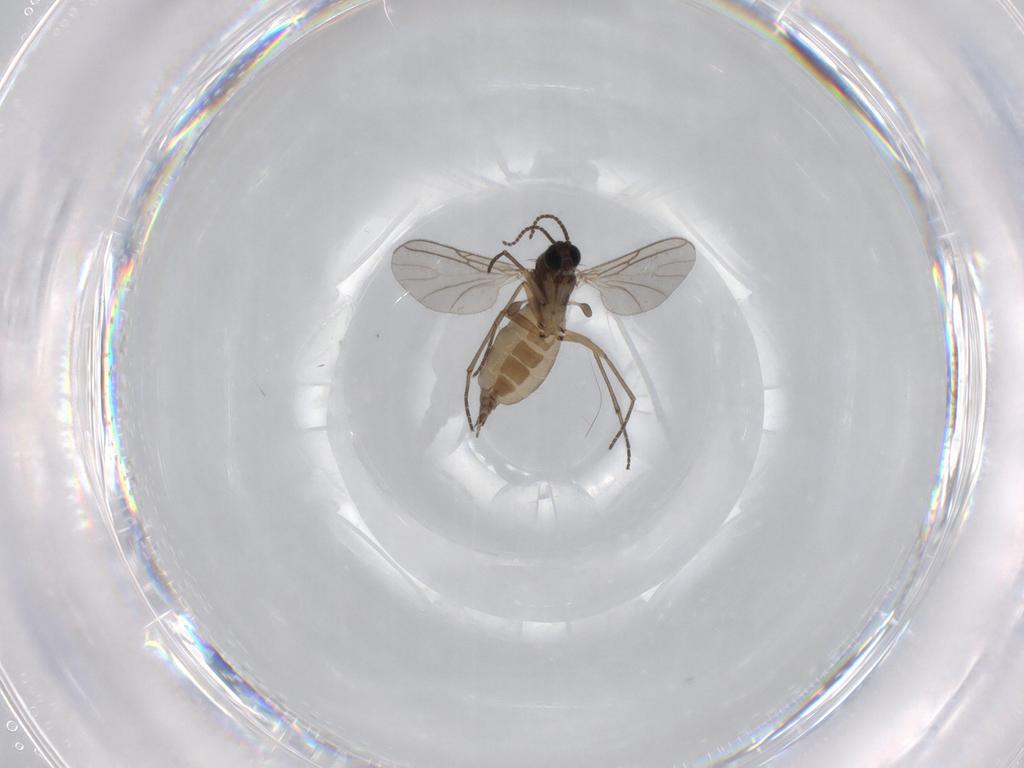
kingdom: Animalia
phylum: Arthropoda
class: Insecta
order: Diptera
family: Sciaridae
